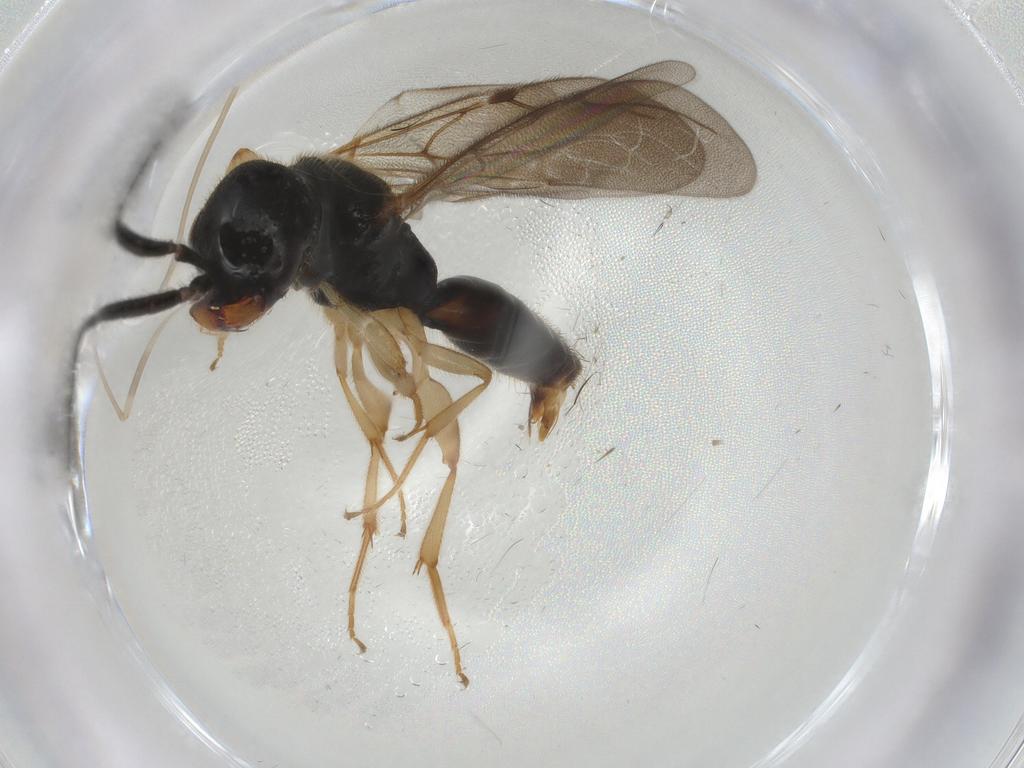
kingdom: Animalia
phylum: Arthropoda
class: Insecta
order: Hymenoptera
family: Bethylidae
